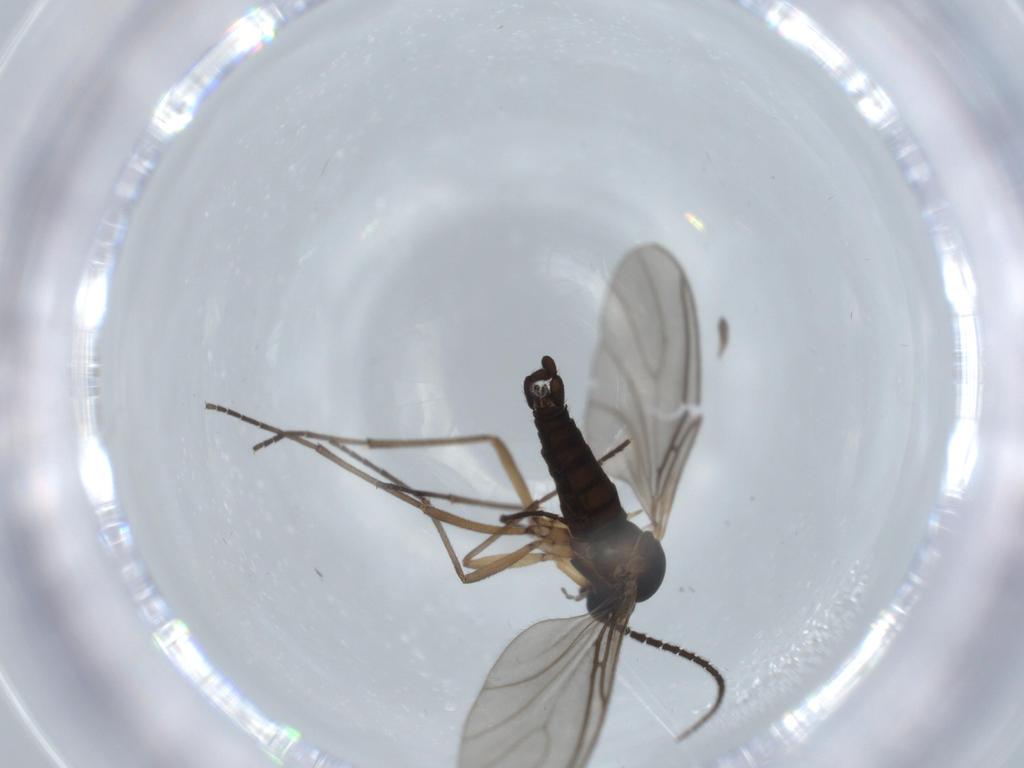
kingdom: Animalia
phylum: Arthropoda
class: Insecta
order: Diptera
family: Sciaridae
